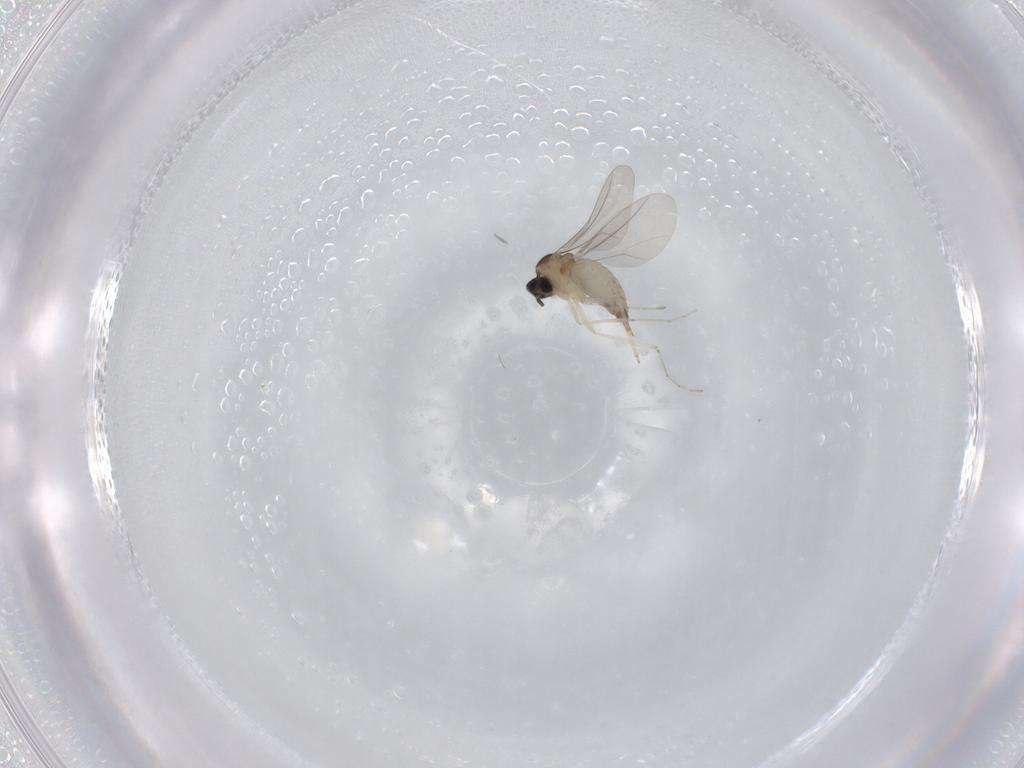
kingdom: Animalia
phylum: Arthropoda
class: Insecta
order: Diptera
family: Cecidomyiidae
